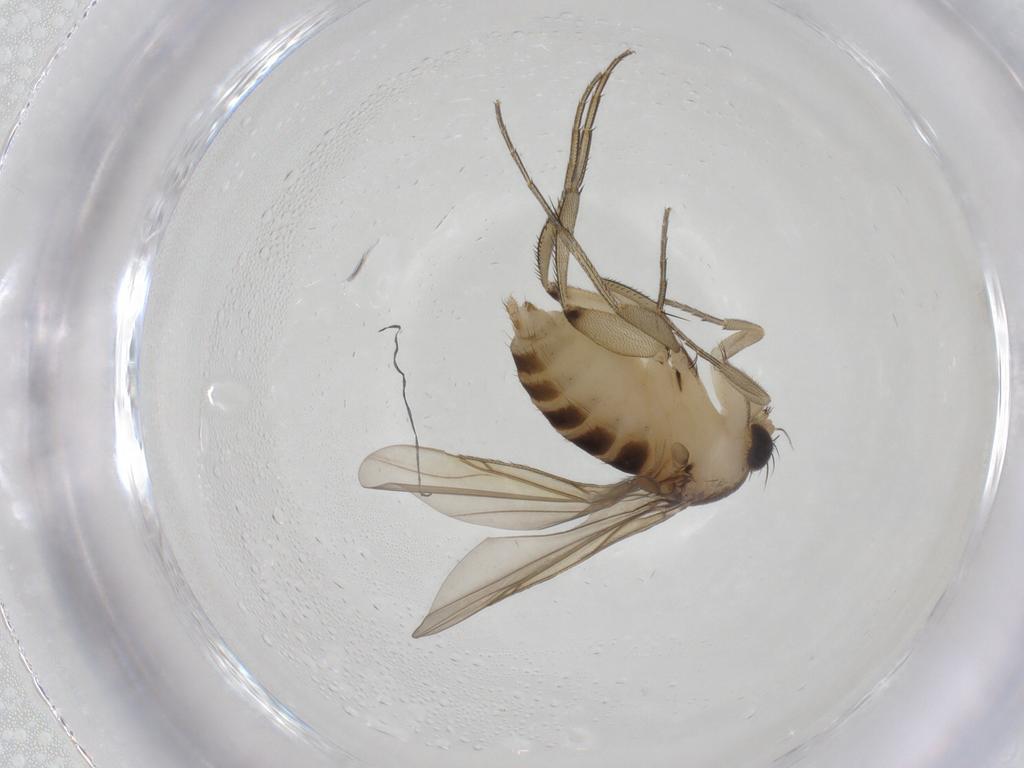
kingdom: Animalia
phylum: Arthropoda
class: Insecta
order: Diptera
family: Phoridae
